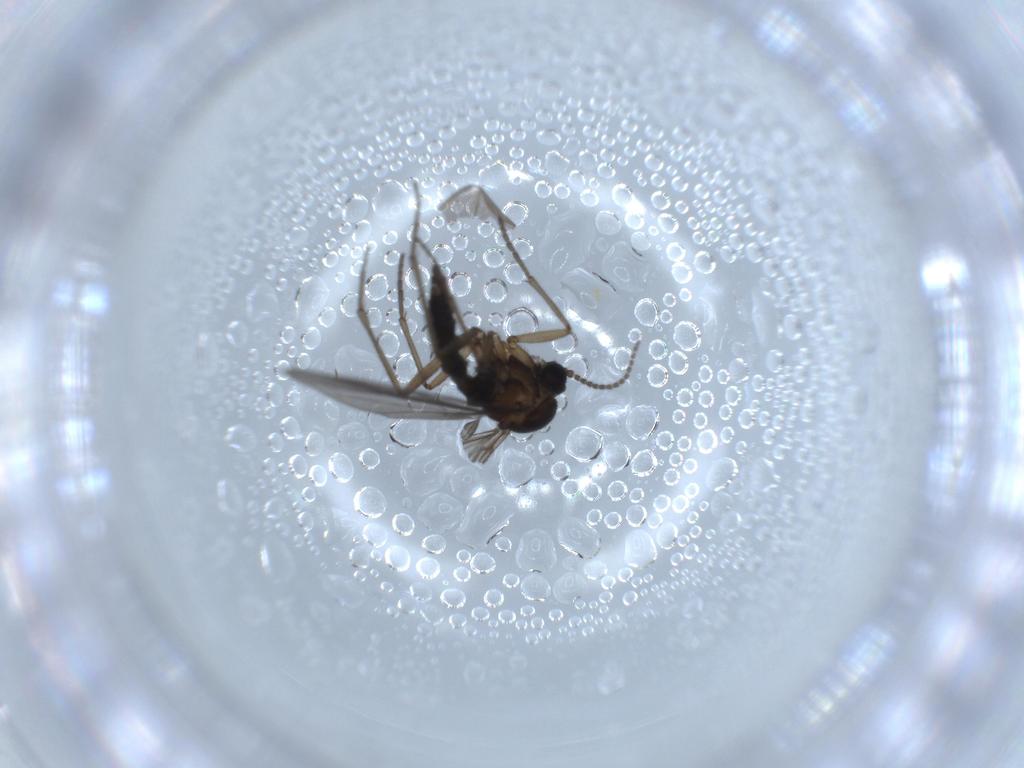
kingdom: Animalia
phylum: Arthropoda
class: Insecta
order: Diptera
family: Sciaridae
